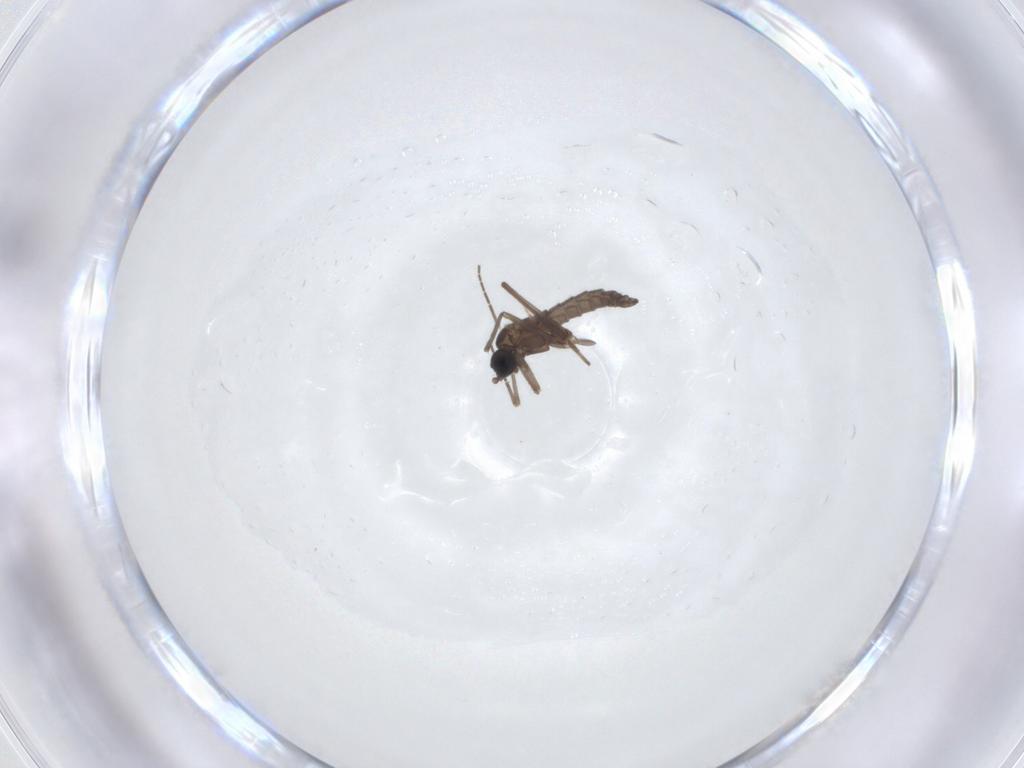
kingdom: Animalia
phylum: Arthropoda
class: Insecta
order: Diptera
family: Sciaridae
